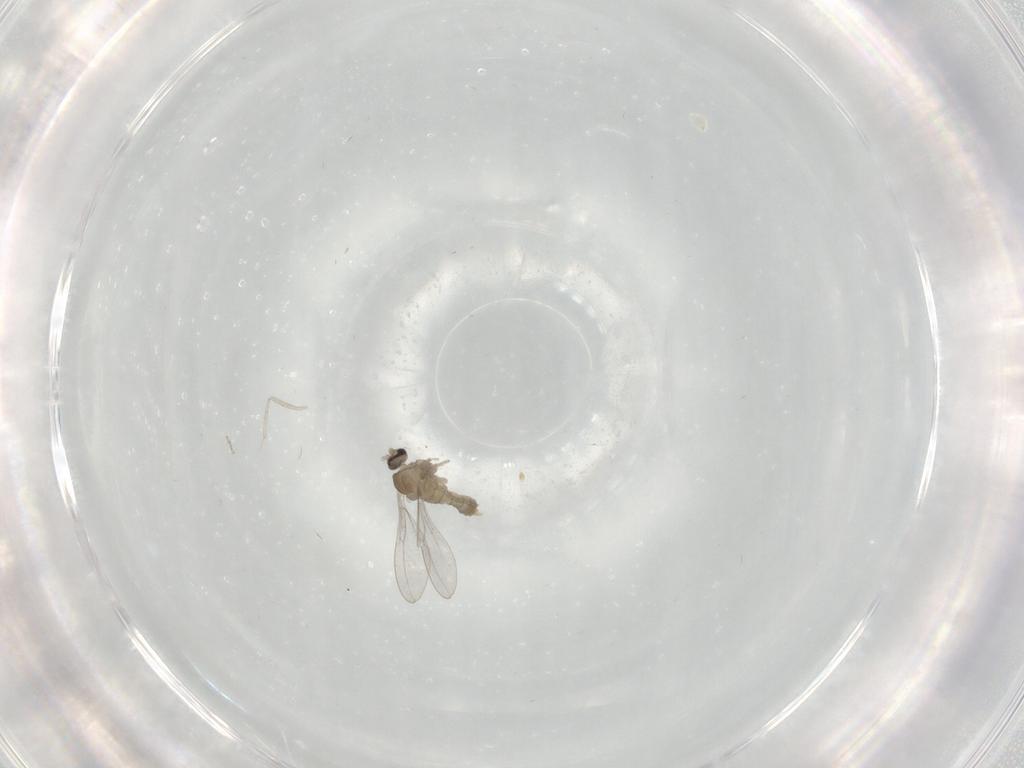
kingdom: Animalia
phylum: Arthropoda
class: Insecta
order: Diptera
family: Cecidomyiidae
